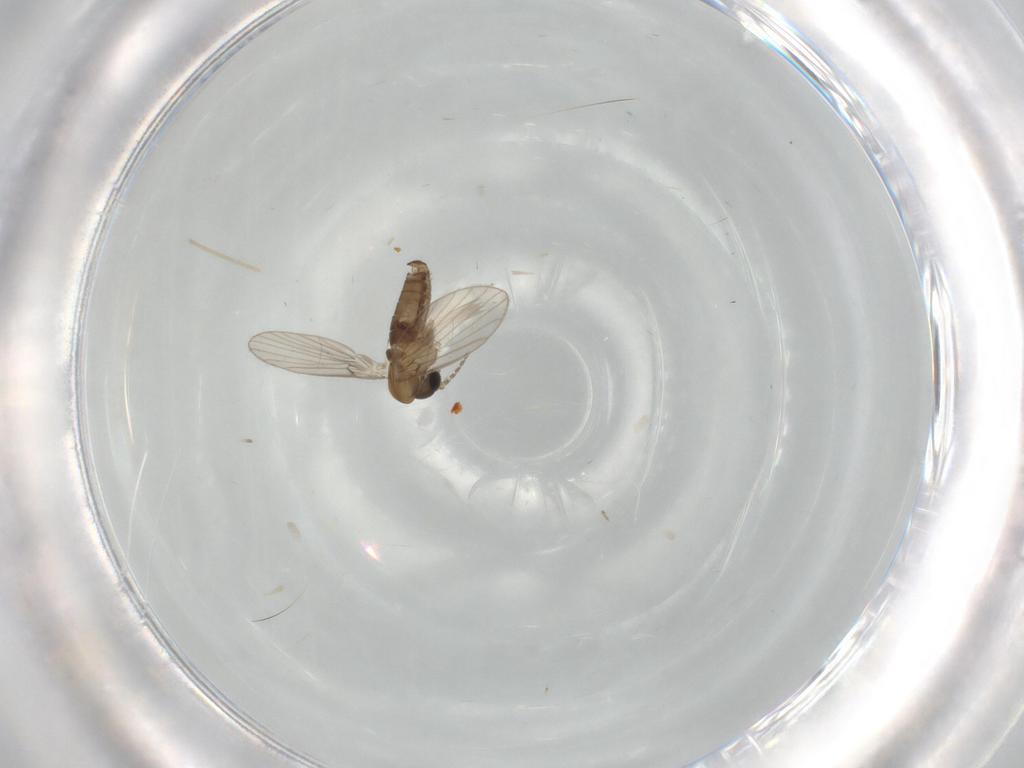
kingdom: Animalia
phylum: Arthropoda
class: Insecta
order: Diptera
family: Psychodidae
